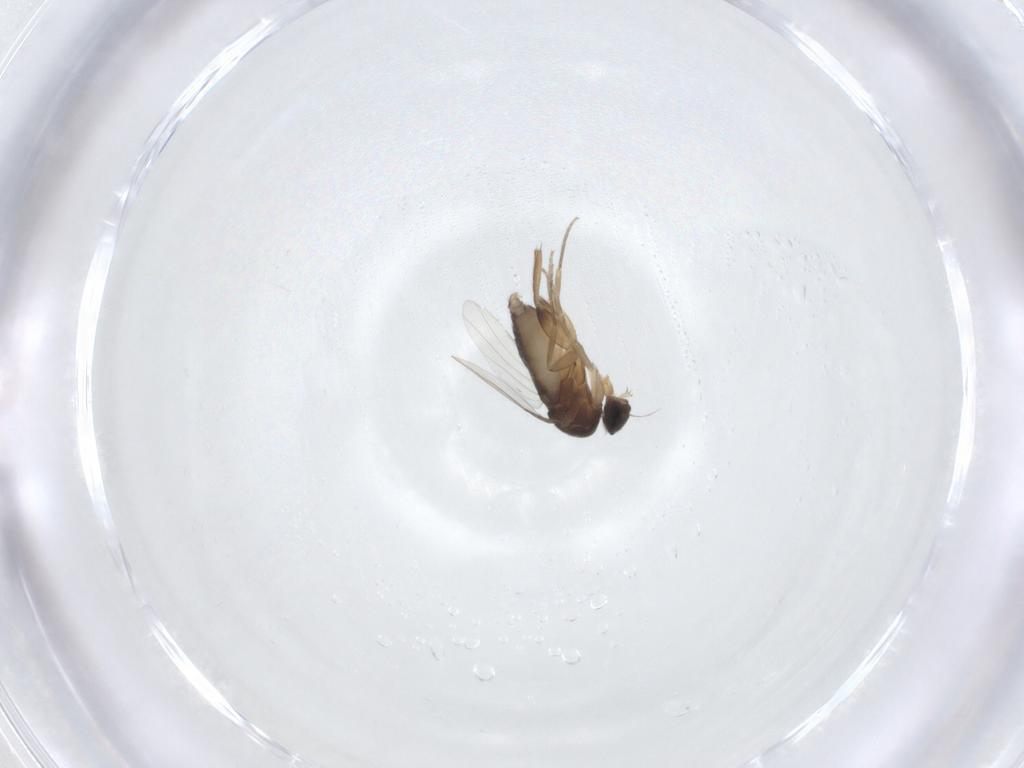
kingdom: Animalia
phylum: Arthropoda
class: Insecta
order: Diptera
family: Phoridae
